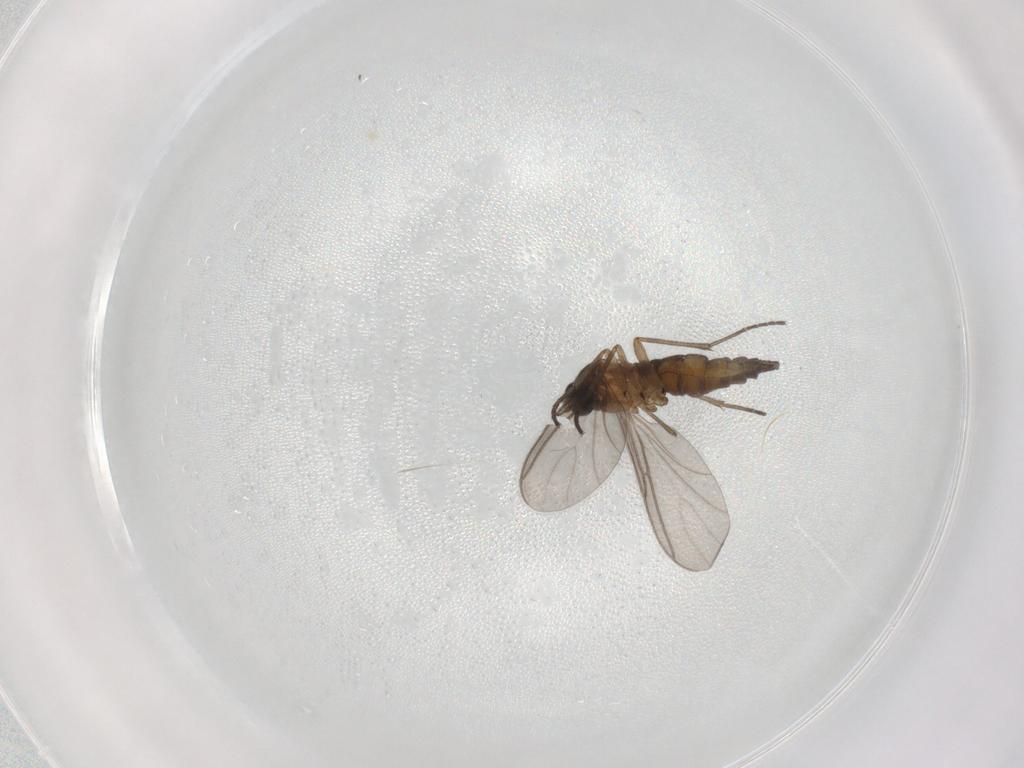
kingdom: Animalia
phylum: Arthropoda
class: Insecta
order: Diptera
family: Sciaridae
